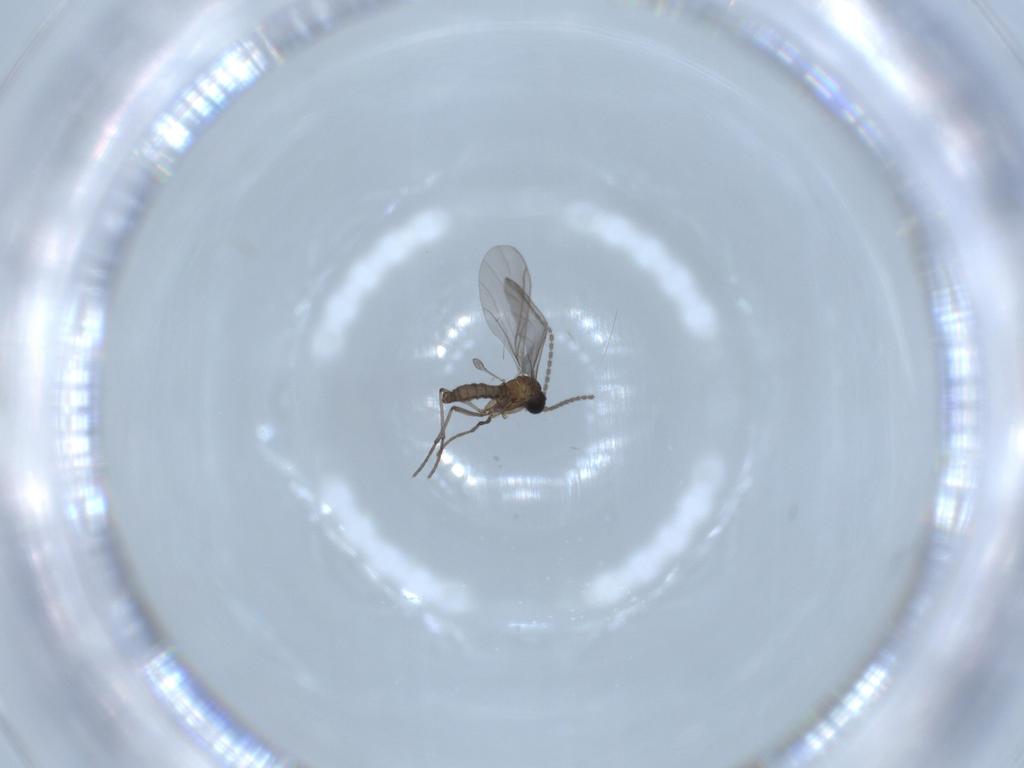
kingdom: Animalia
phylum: Arthropoda
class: Insecta
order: Diptera
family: Sciaridae
